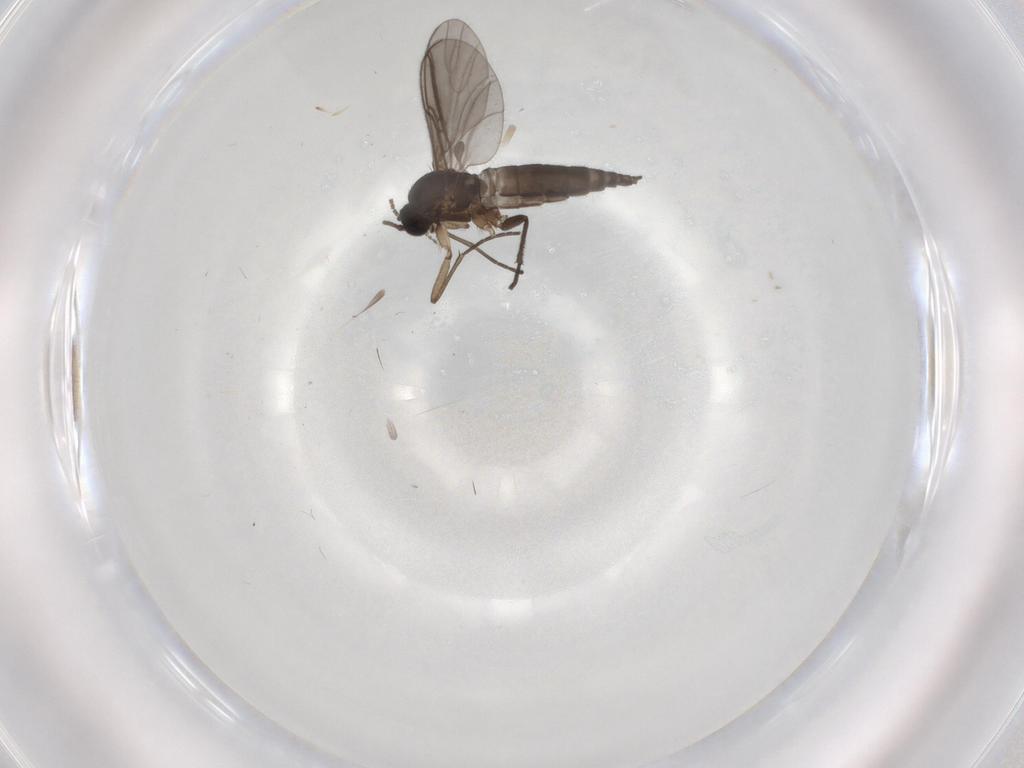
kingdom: Animalia
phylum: Arthropoda
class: Insecta
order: Diptera
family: Sciaridae
